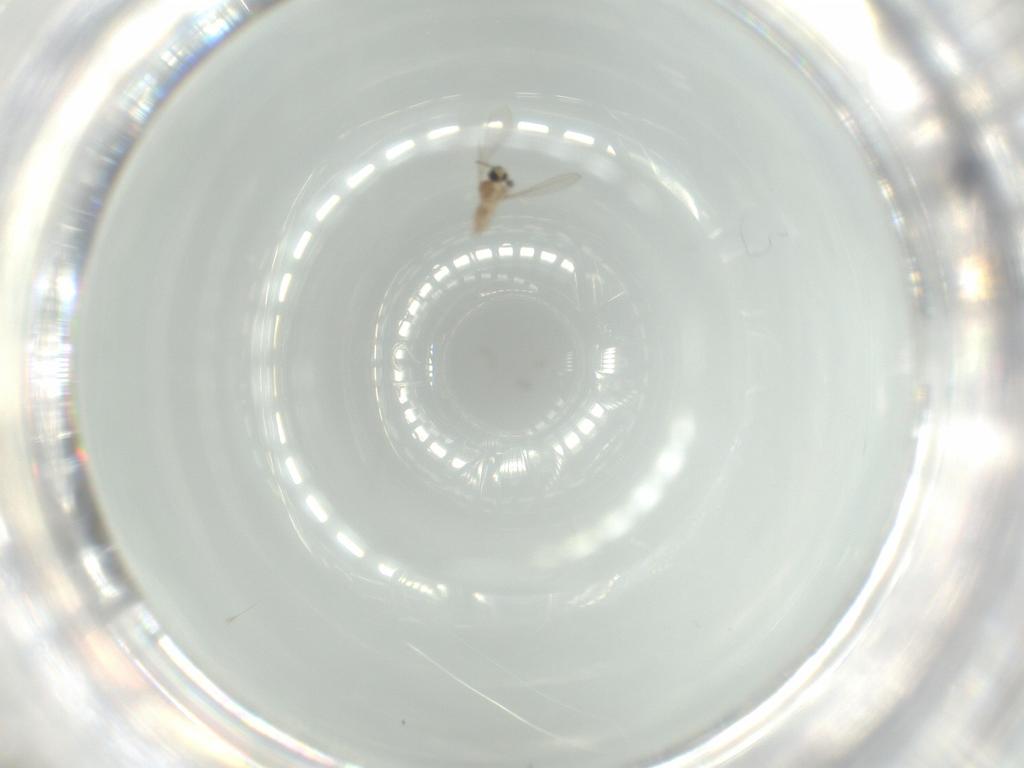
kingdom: Animalia
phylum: Arthropoda
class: Insecta
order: Diptera
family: Cecidomyiidae
